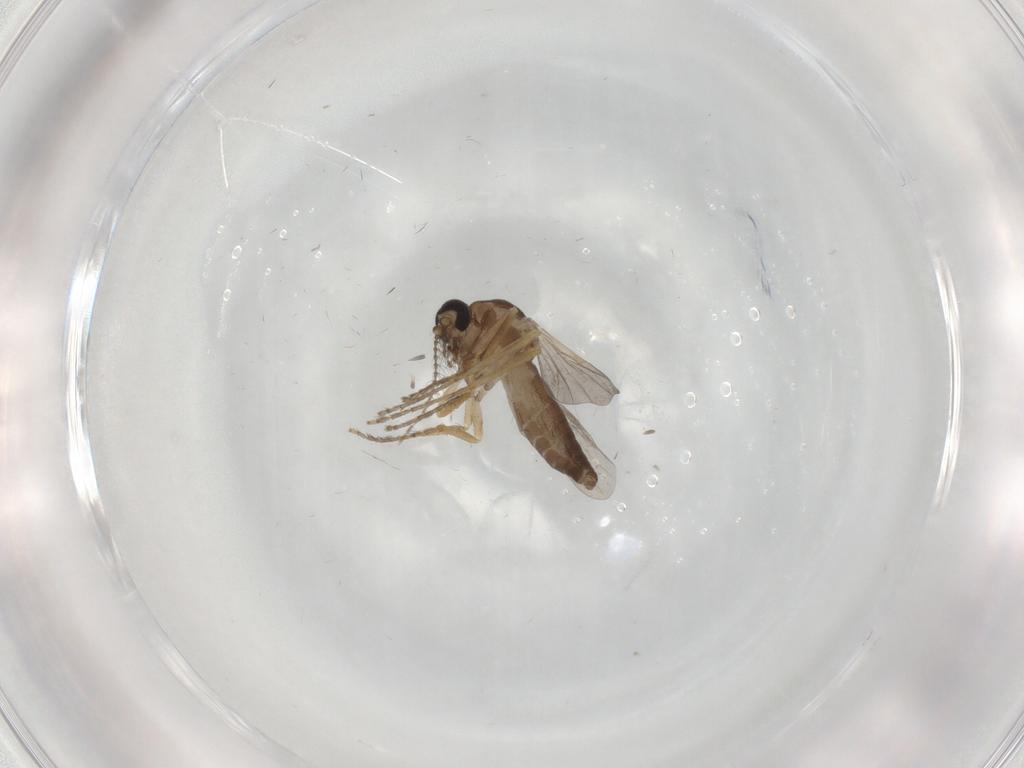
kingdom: Animalia
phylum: Arthropoda
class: Insecta
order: Diptera
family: Ceratopogonidae
